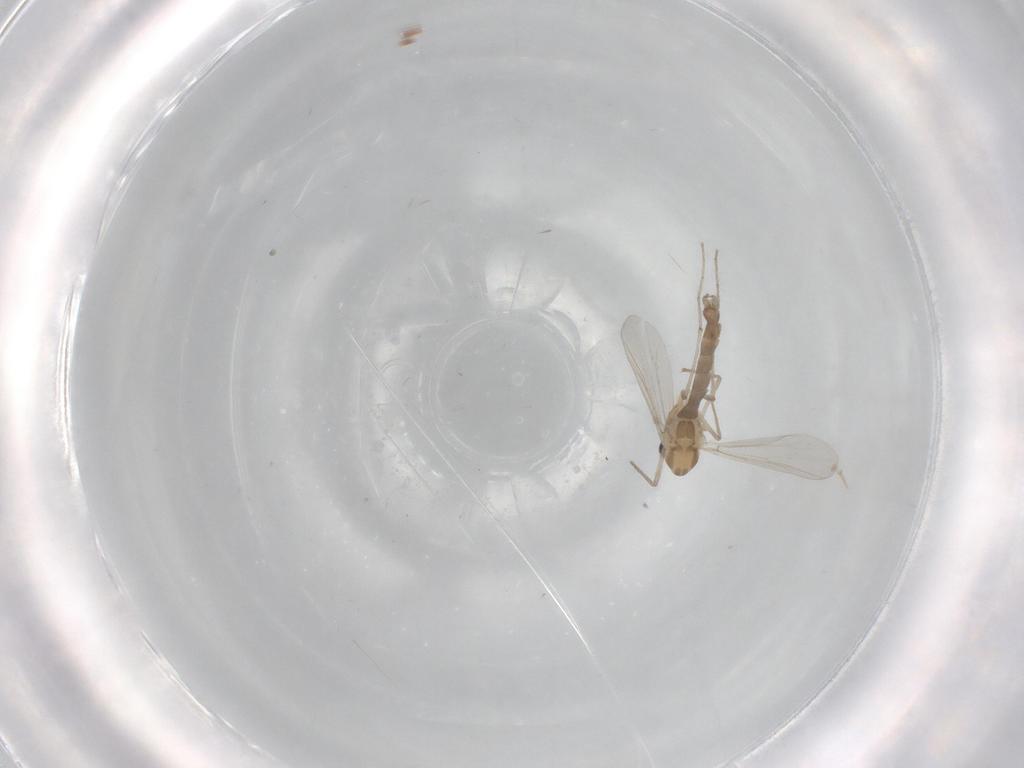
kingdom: Animalia
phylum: Arthropoda
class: Insecta
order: Diptera
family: Chironomidae
